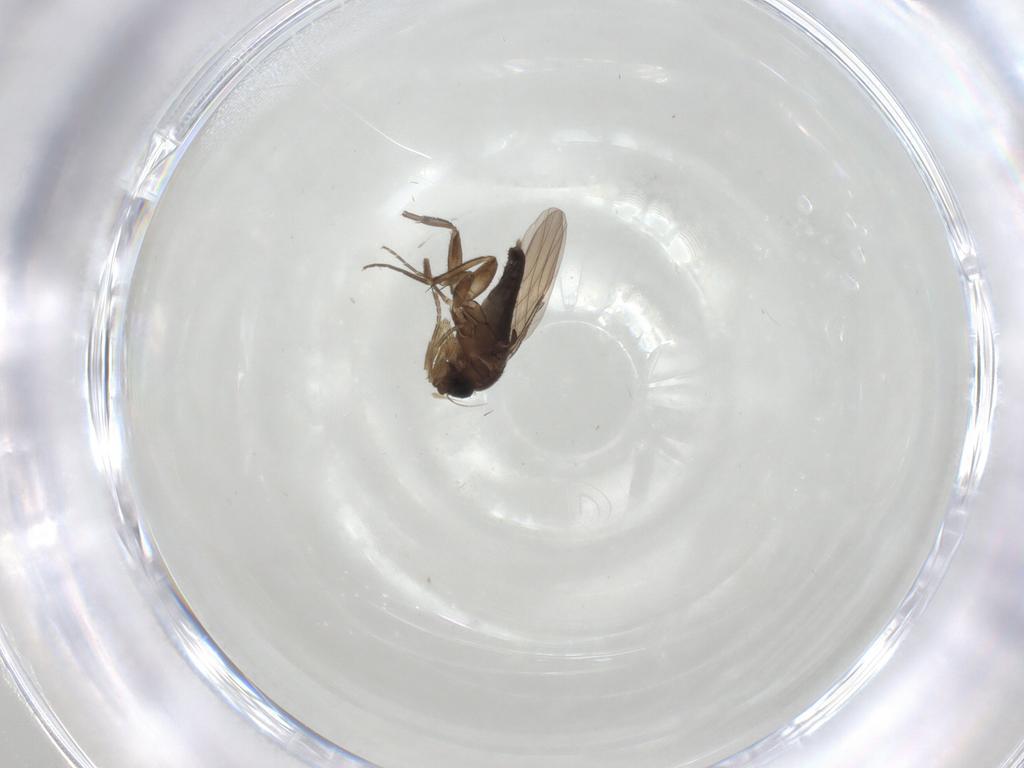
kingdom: Animalia
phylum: Arthropoda
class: Insecta
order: Diptera
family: Phoridae
